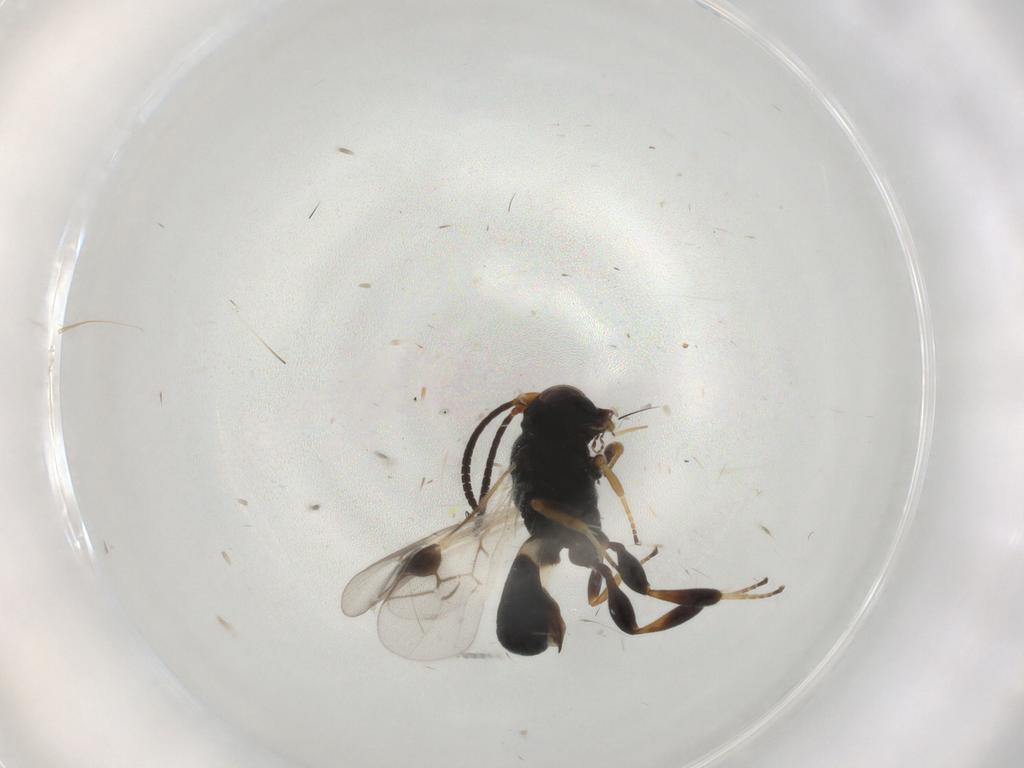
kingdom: Animalia
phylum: Arthropoda
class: Insecta
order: Hymenoptera
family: Braconidae
